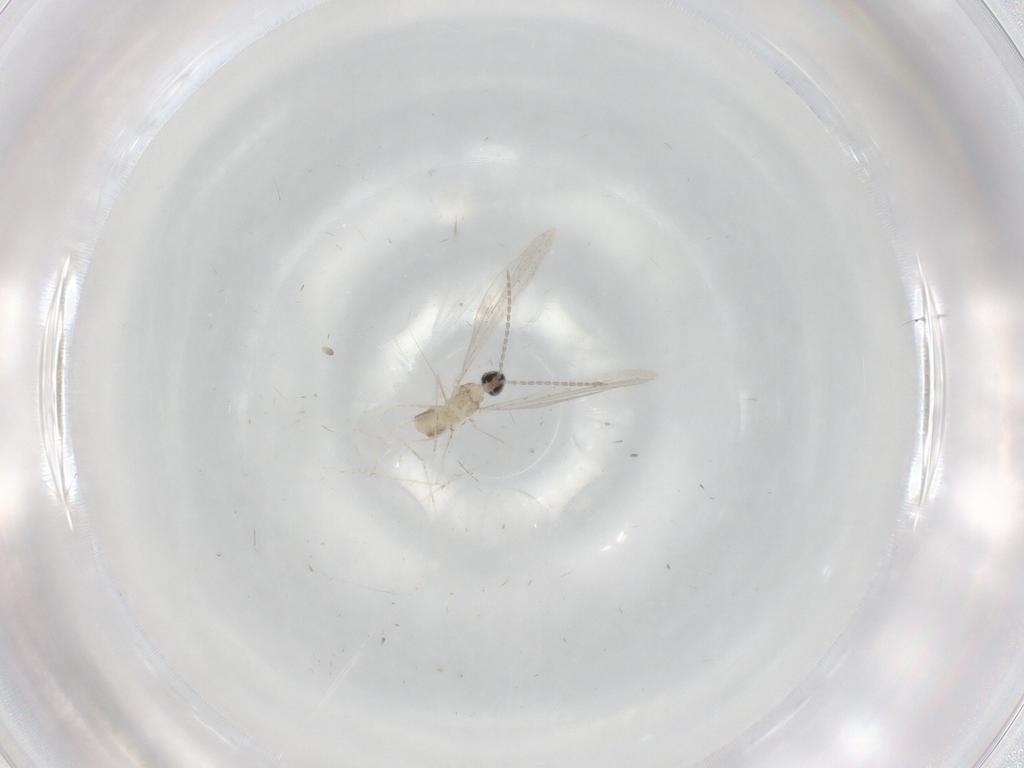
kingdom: Animalia
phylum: Arthropoda
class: Insecta
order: Diptera
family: Cecidomyiidae
